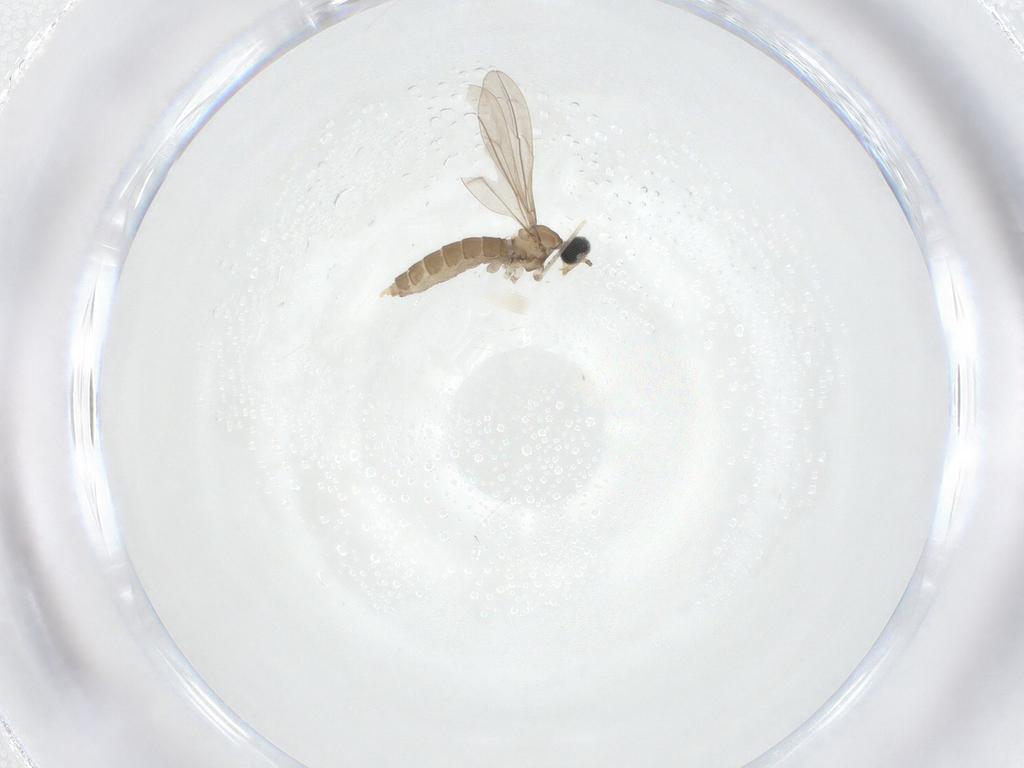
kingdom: Animalia
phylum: Arthropoda
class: Insecta
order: Diptera
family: Cecidomyiidae
